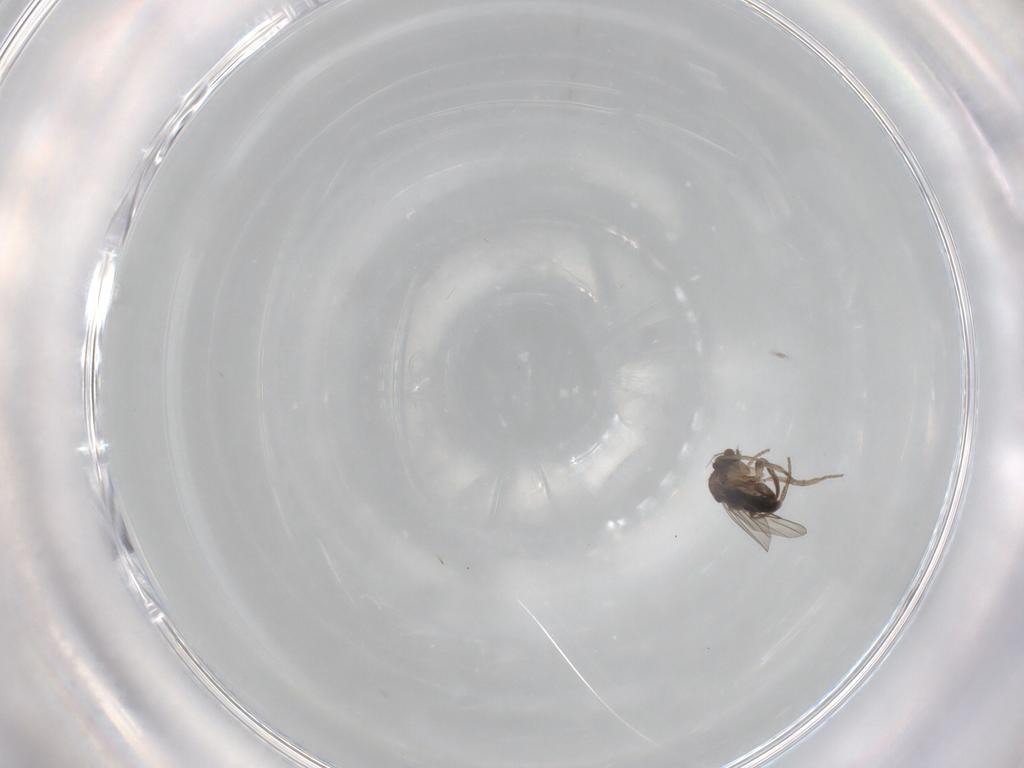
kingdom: Animalia
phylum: Arthropoda
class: Insecta
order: Diptera
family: Phoridae
